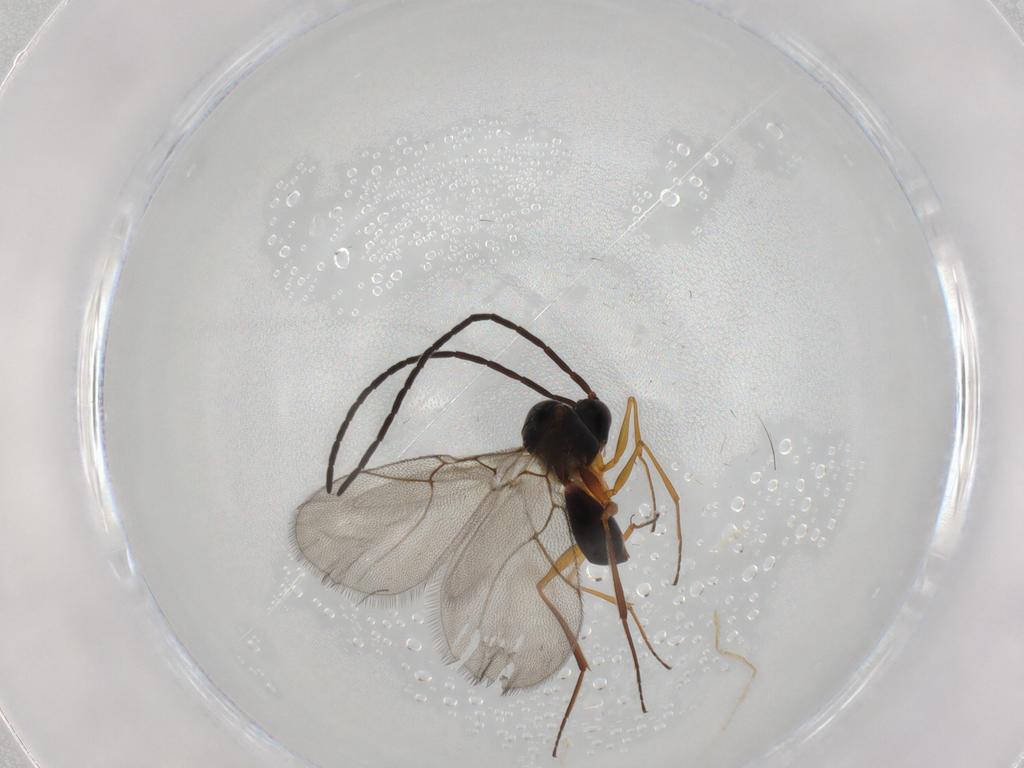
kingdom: Animalia
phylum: Arthropoda
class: Insecta
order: Hymenoptera
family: Figitidae
